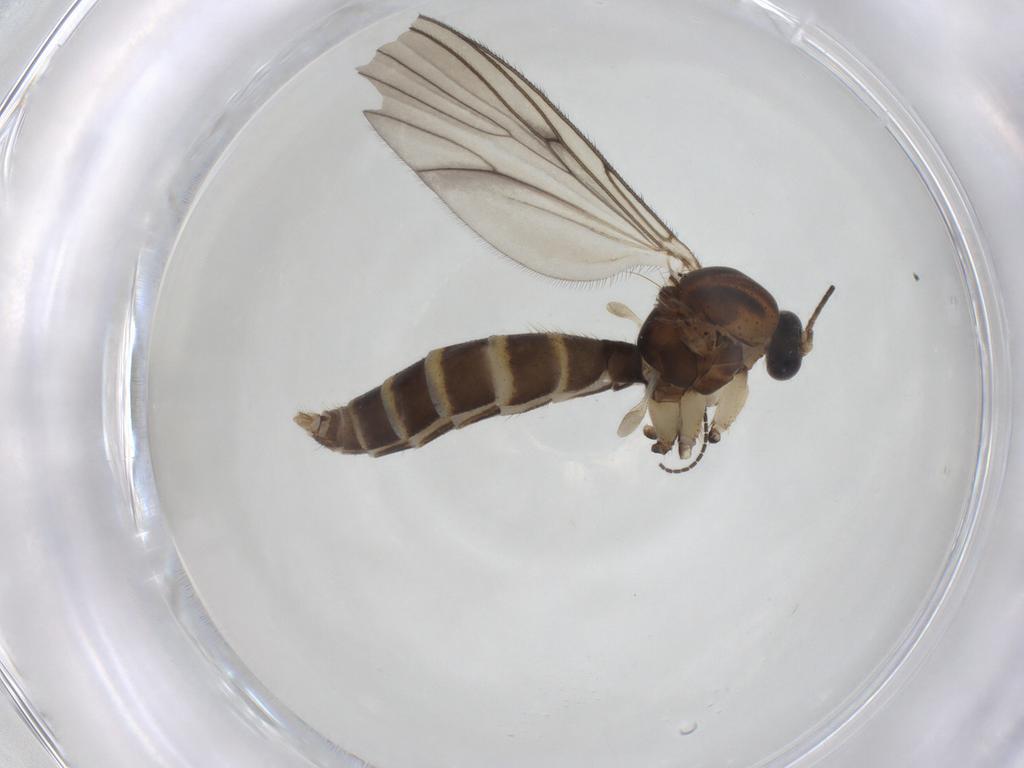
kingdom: Animalia
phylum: Arthropoda
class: Insecta
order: Diptera
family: Mycetophilidae
